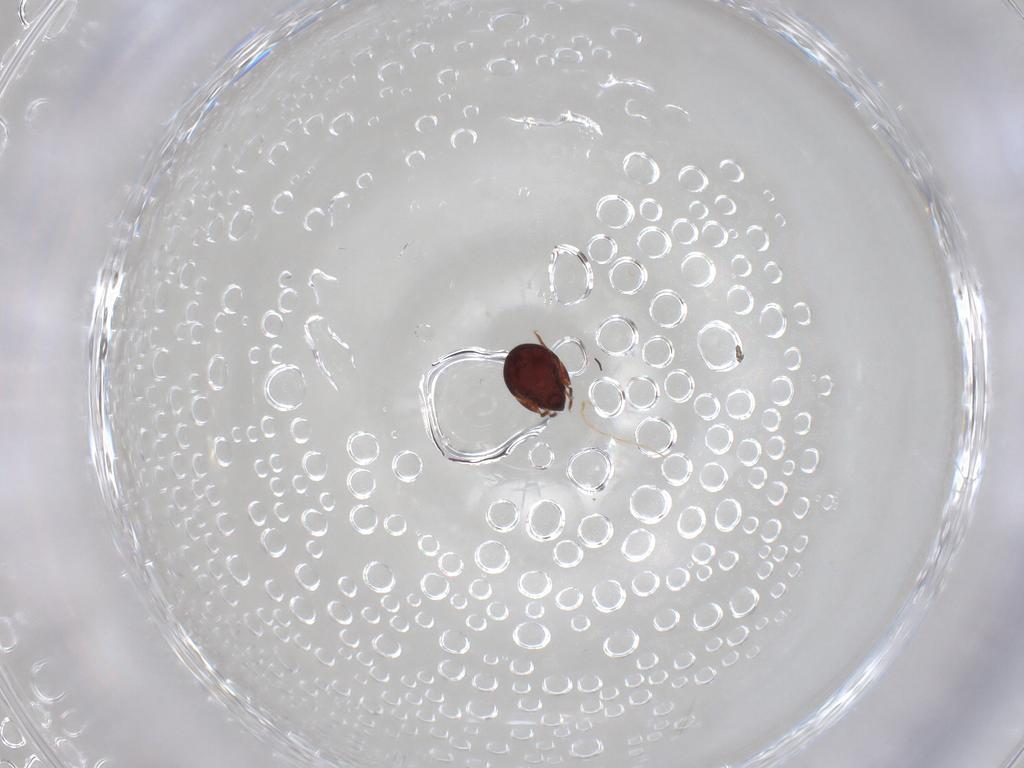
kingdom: Animalia
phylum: Arthropoda
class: Arachnida
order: Sarcoptiformes
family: Humerobatidae
